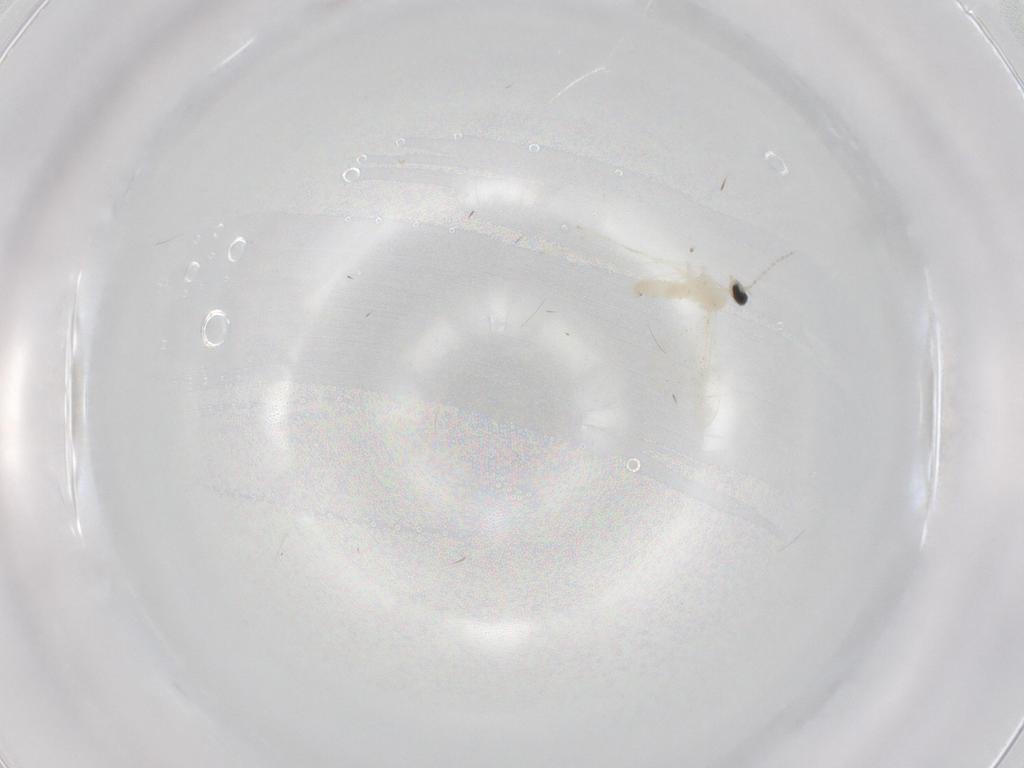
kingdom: Animalia
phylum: Arthropoda
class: Insecta
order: Diptera
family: Cecidomyiidae
